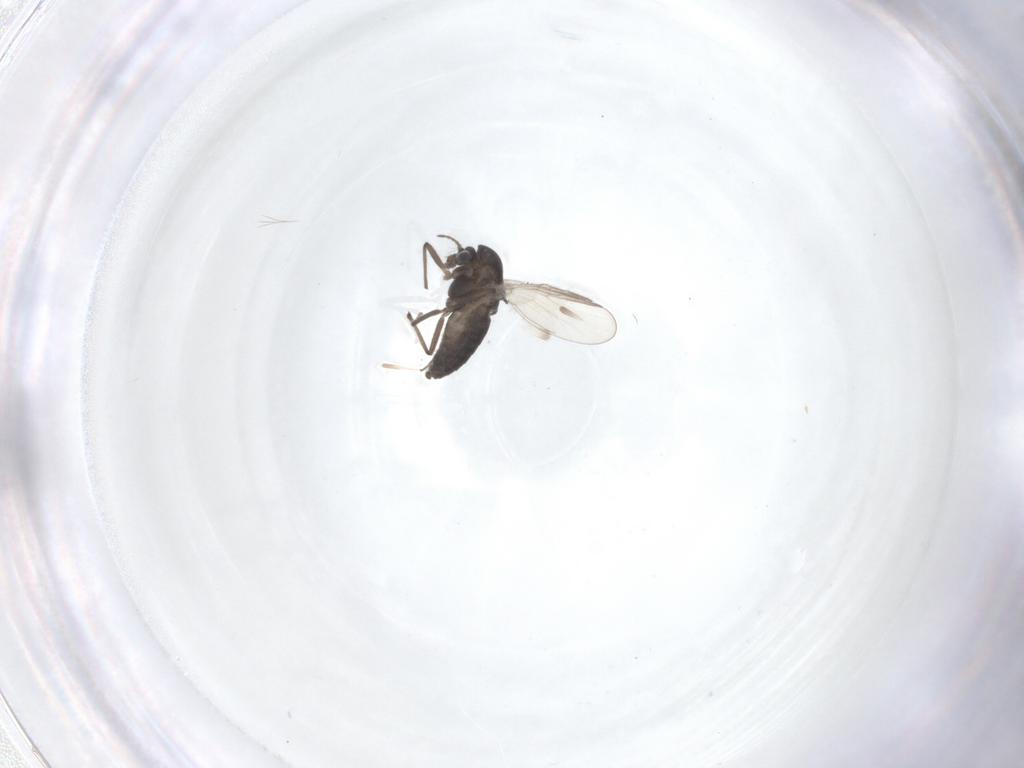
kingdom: Animalia
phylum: Arthropoda
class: Insecta
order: Diptera
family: Chironomidae
